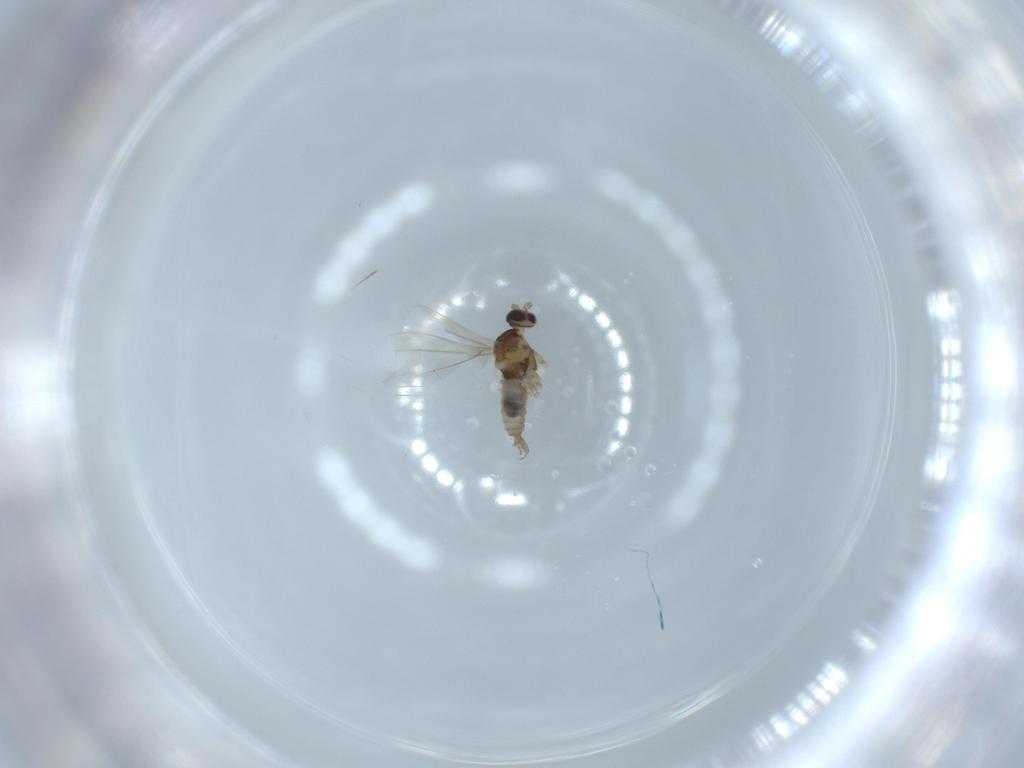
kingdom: Animalia
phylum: Arthropoda
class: Insecta
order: Diptera
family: Cecidomyiidae
